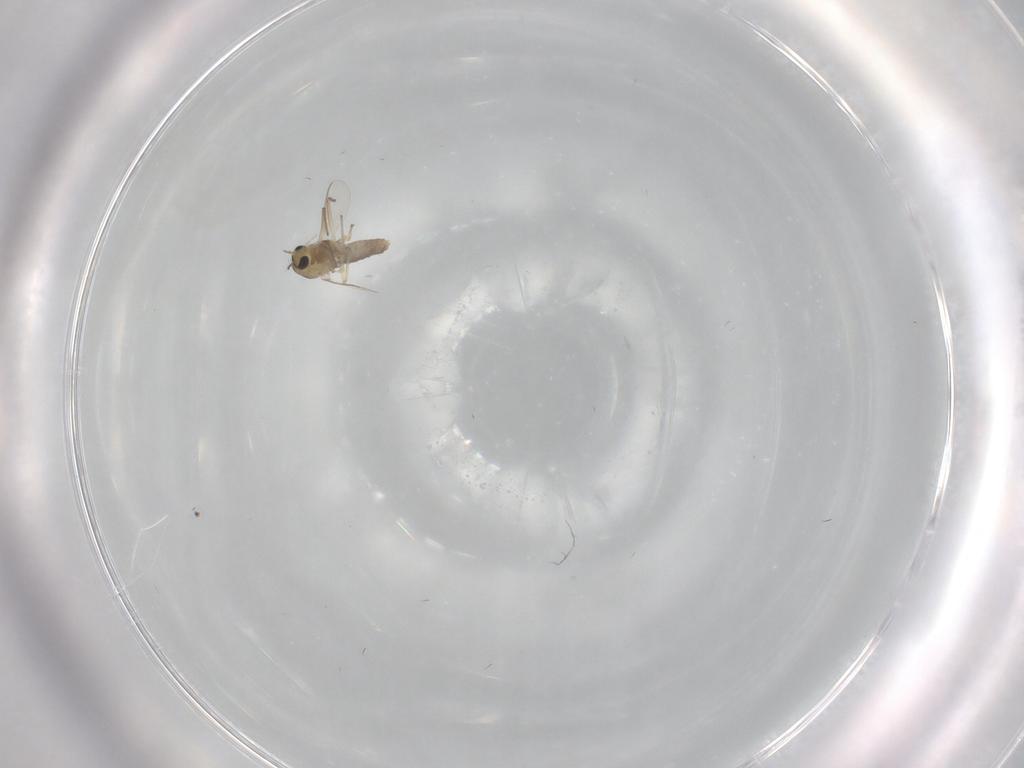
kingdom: Animalia
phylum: Arthropoda
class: Insecta
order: Diptera
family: Chironomidae
